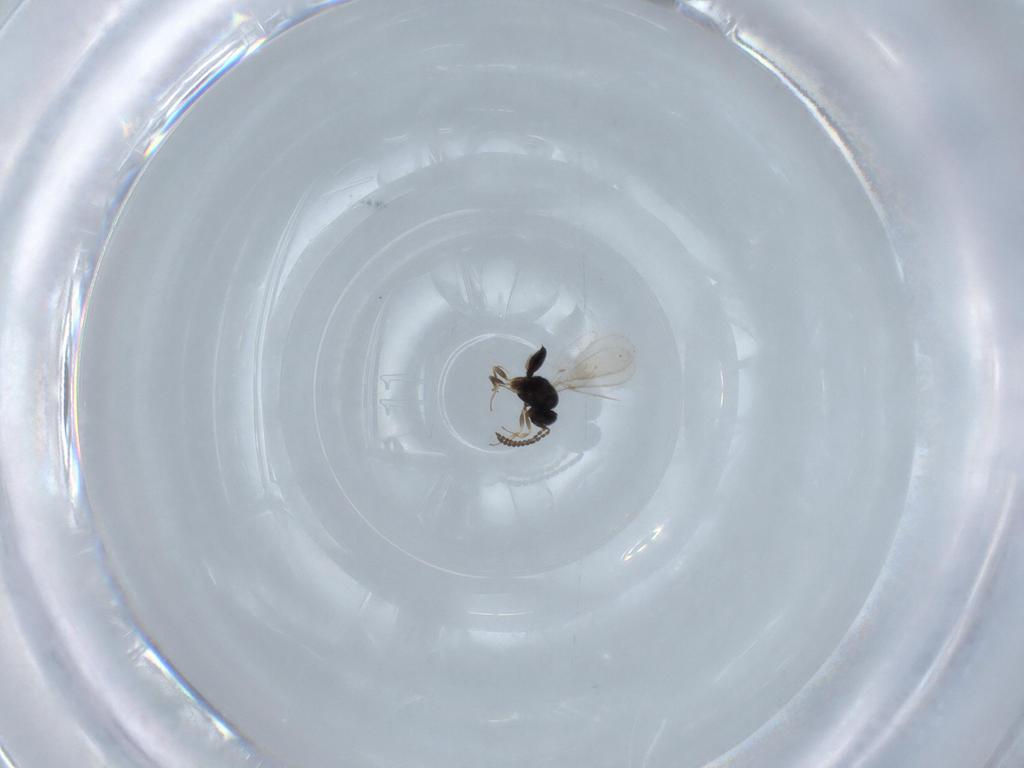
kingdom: Animalia
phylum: Arthropoda
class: Insecta
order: Hymenoptera
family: Scelionidae
